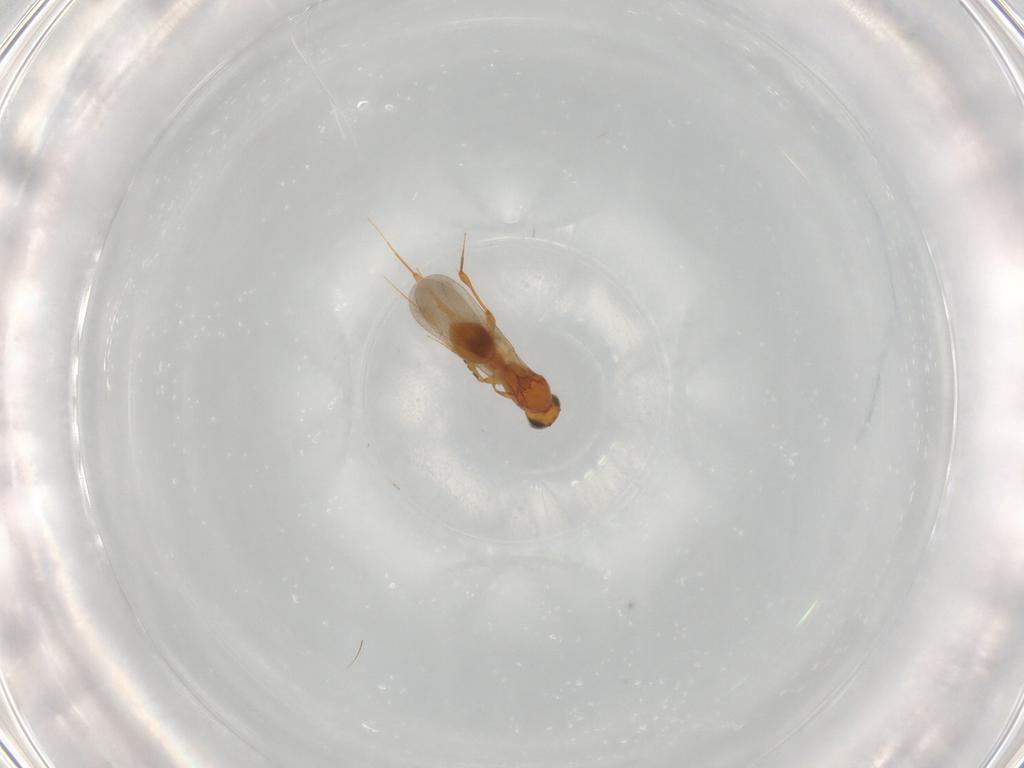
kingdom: Animalia
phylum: Arthropoda
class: Insecta
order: Hymenoptera
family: Platygastridae
